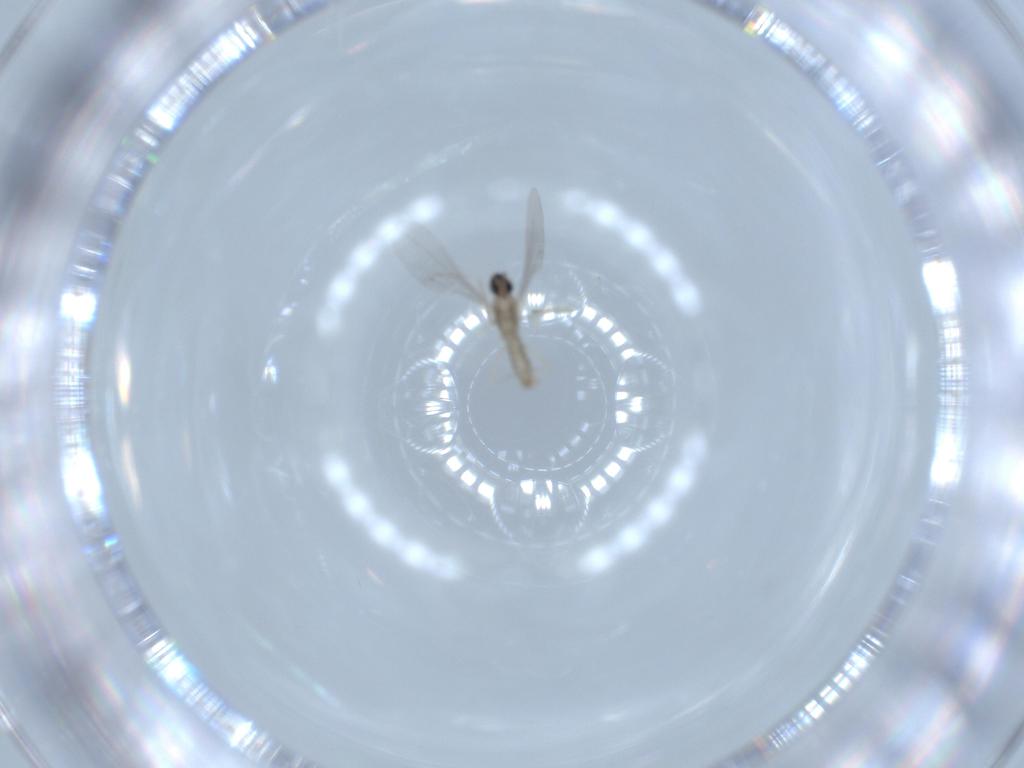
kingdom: Animalia
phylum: Arthropoda
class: Insecta
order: Diptera
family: Cecidomyiidae
